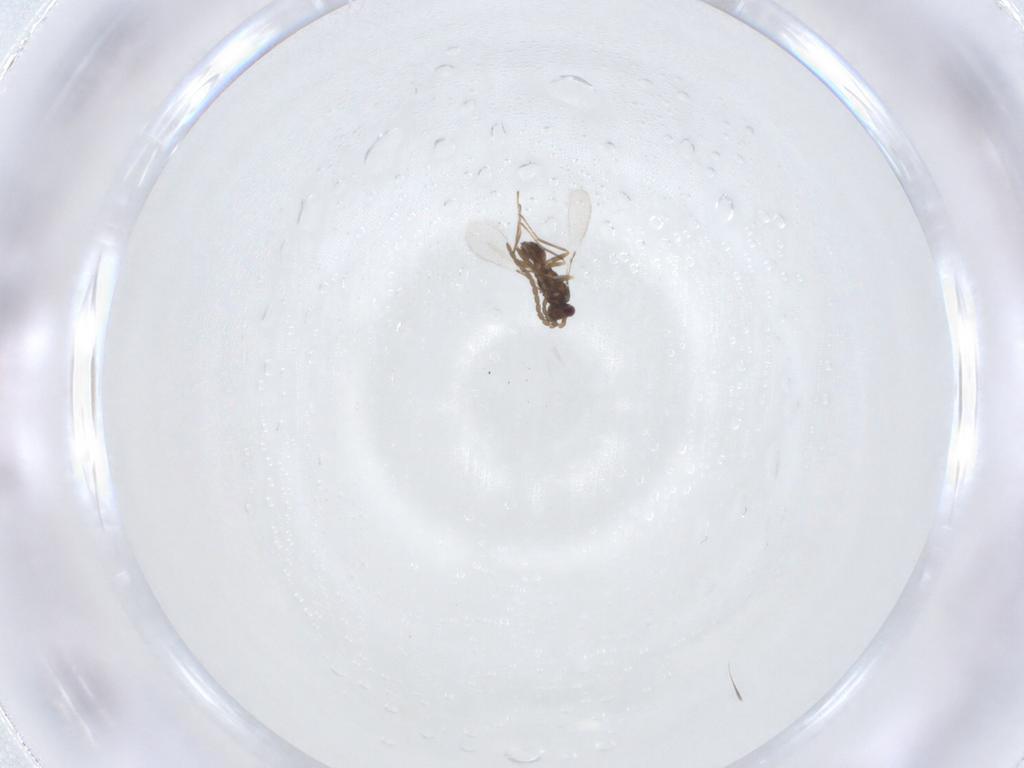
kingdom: Animalia
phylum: Arthropoda
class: Insecta
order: Hymenoptera
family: Mymaridae
